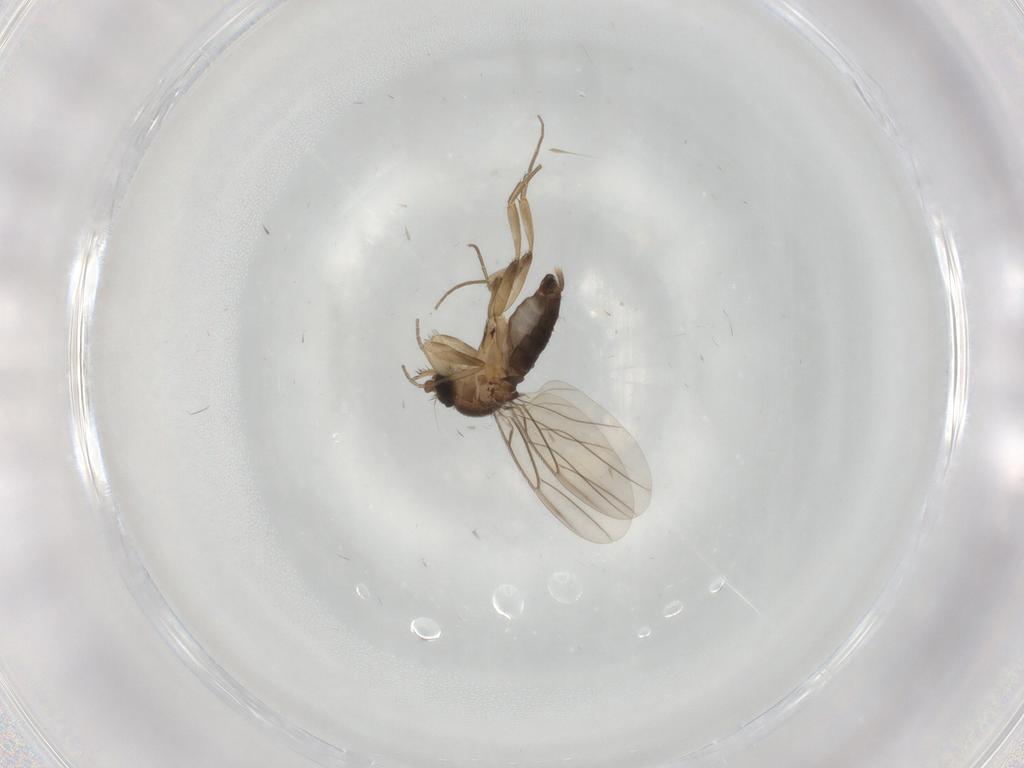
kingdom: Animalia
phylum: Arthropoda
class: Insecta
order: Diptera
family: Phoridae
